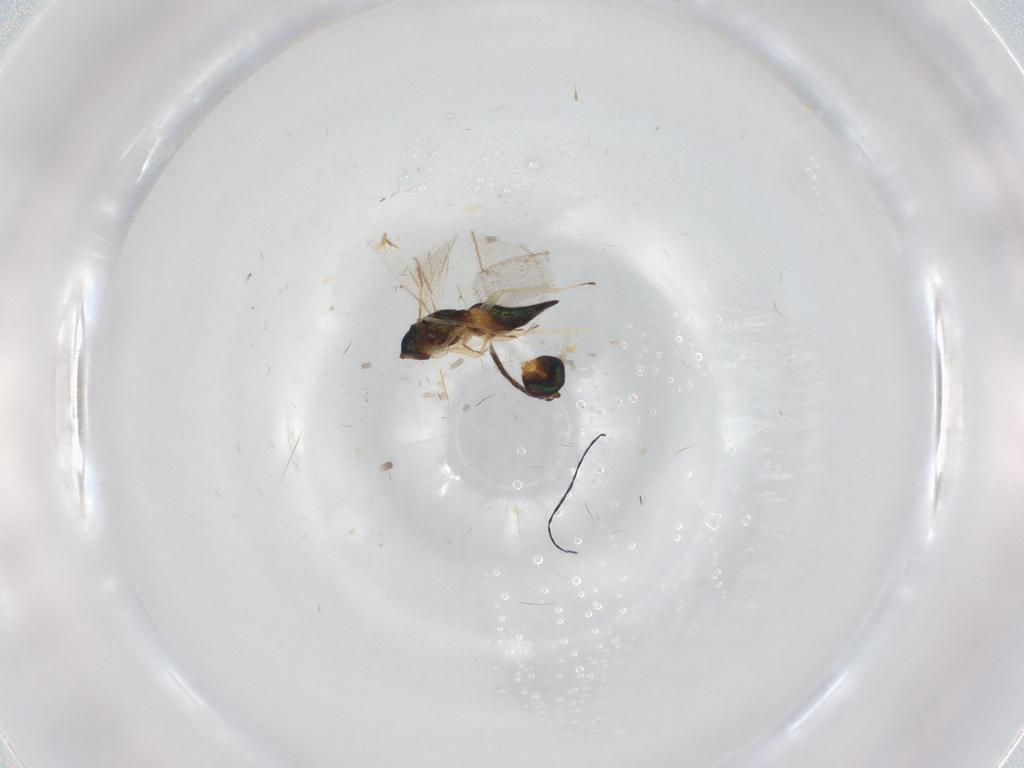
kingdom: Animalia
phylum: Arthropoda
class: Insecta
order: Hymenoptera
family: Eulophidae
